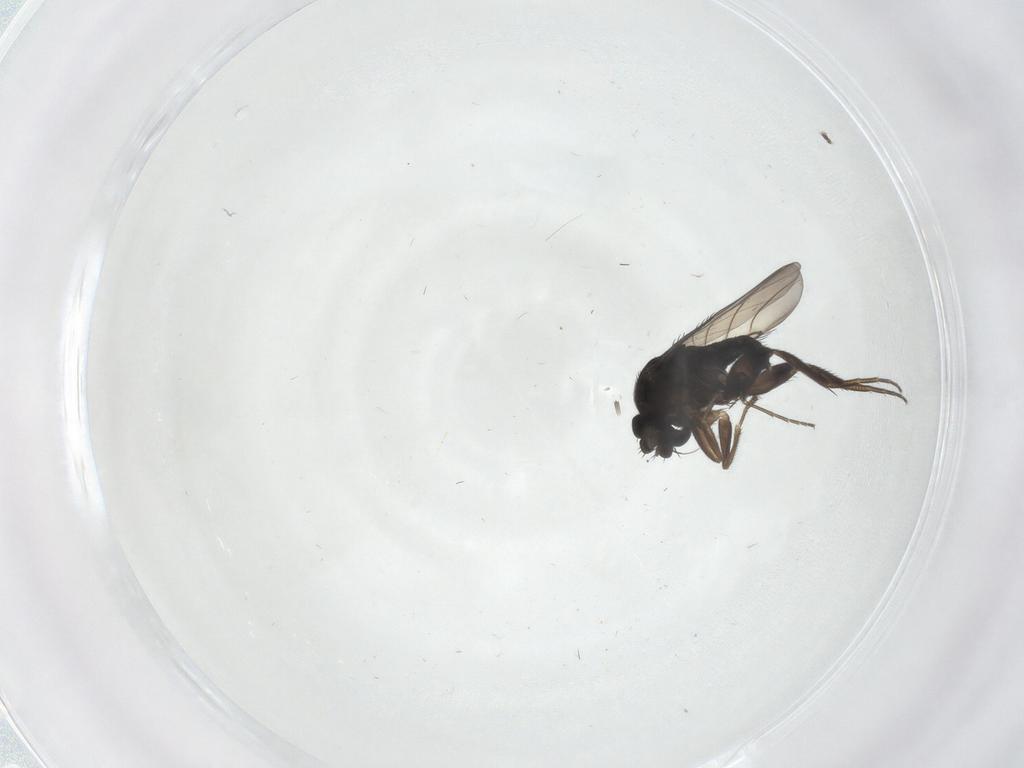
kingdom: Animalia
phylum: Arthropoda
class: Insecta
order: Diptera
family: Phoridae
